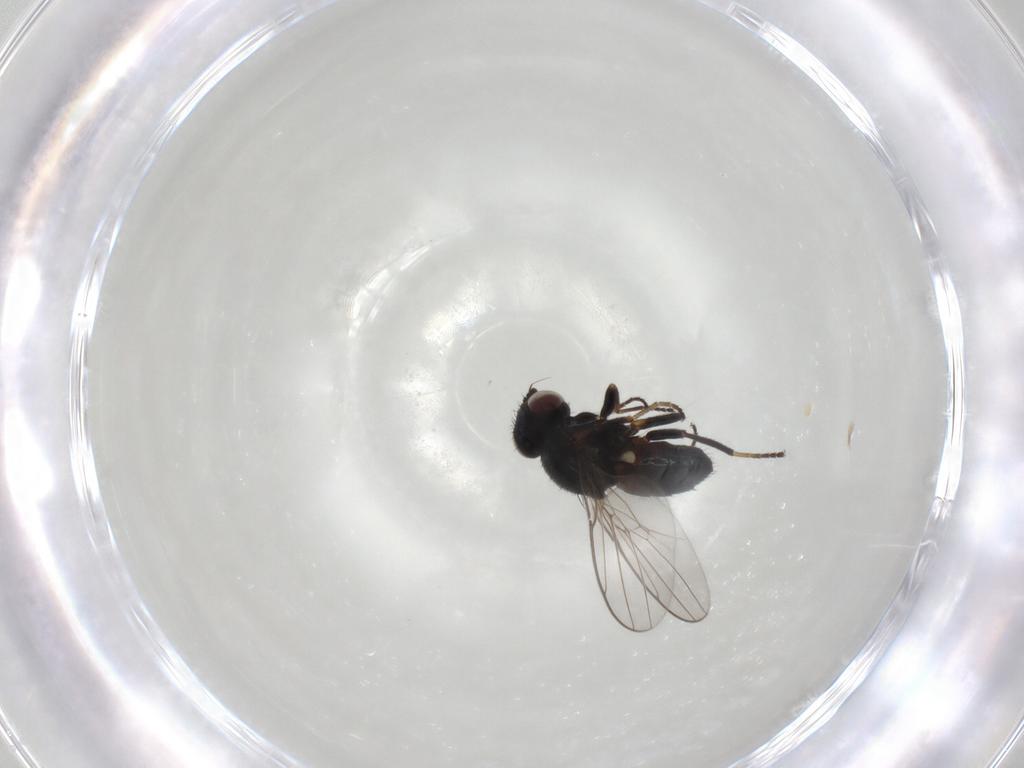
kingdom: Animalia
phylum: Arthropoda
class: Insecta
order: Diptera
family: Chloropidae
